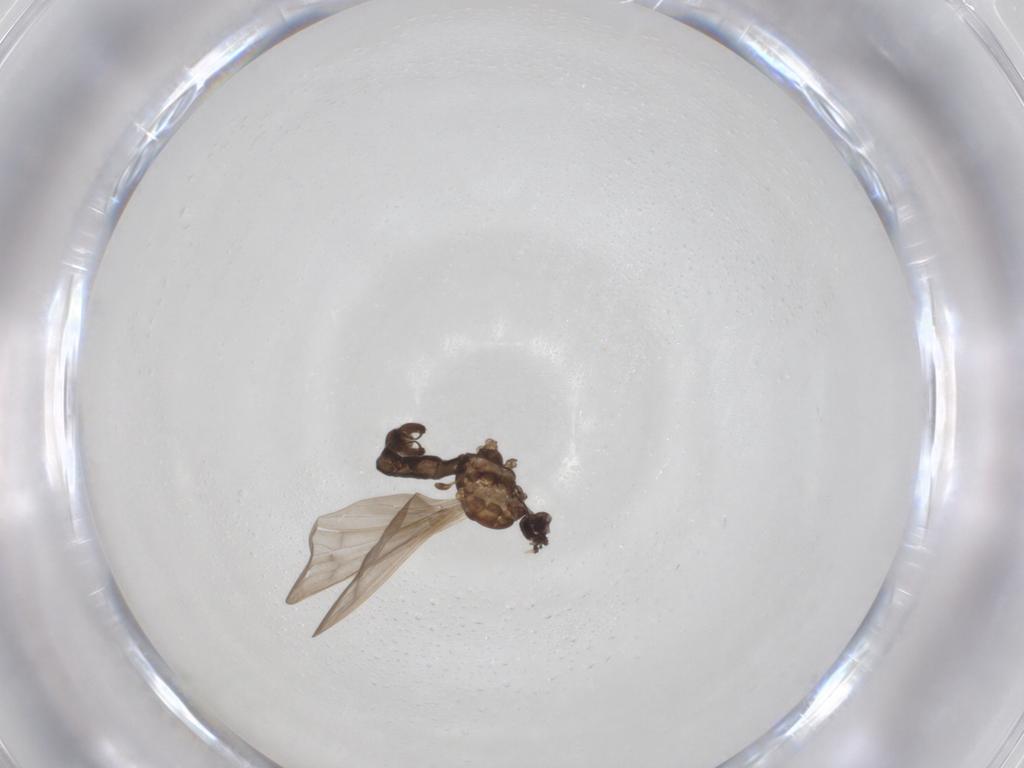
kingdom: Animalia
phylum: Arthropoda
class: Insecta
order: Diptera
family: Limoniidae
